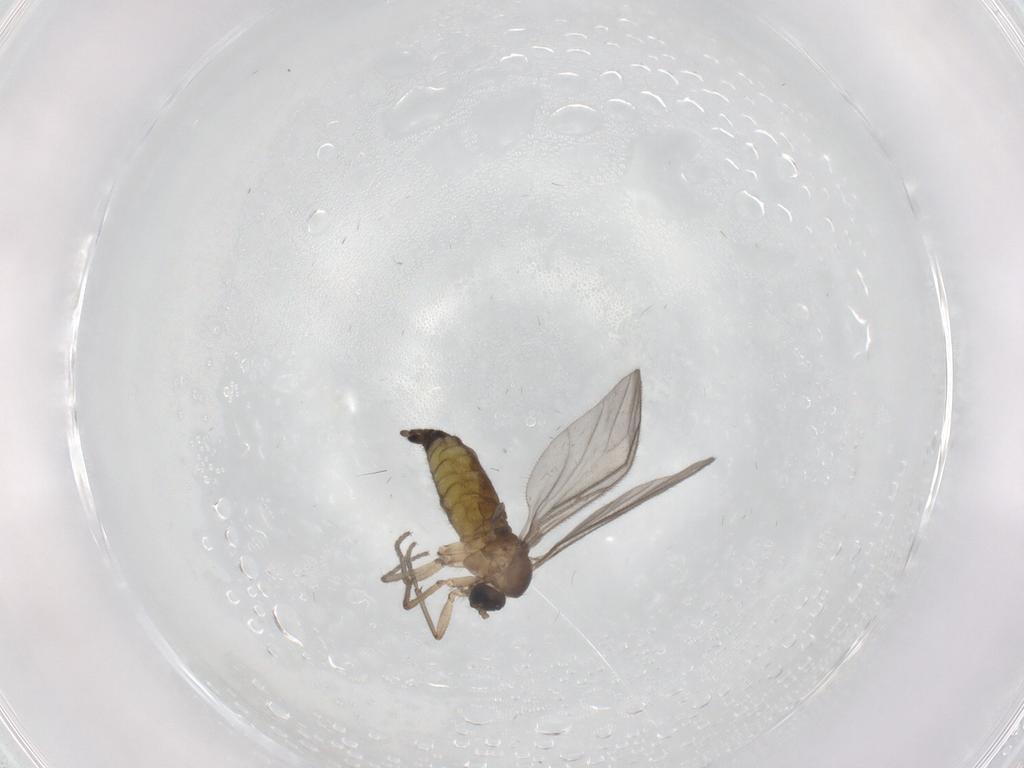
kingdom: Animalia
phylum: Arthropoda
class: Insecta
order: Diptera
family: Sciaridae
